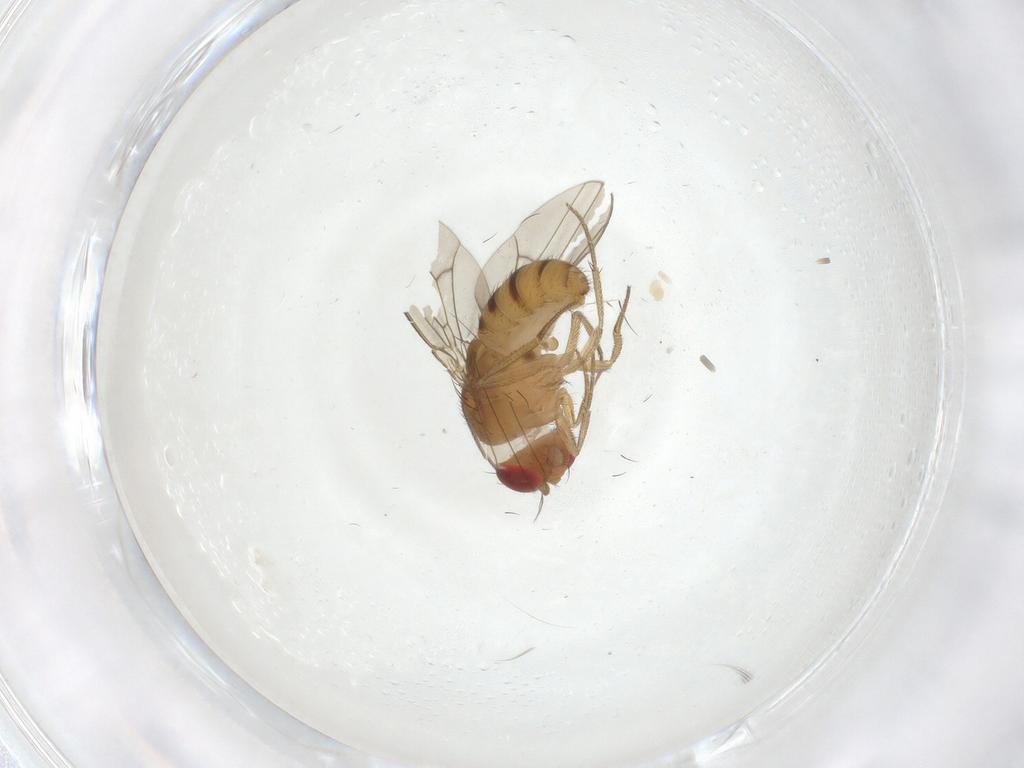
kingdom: Animalia
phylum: Arthropoda
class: Insecta
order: Diptera
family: Drosophilidae
